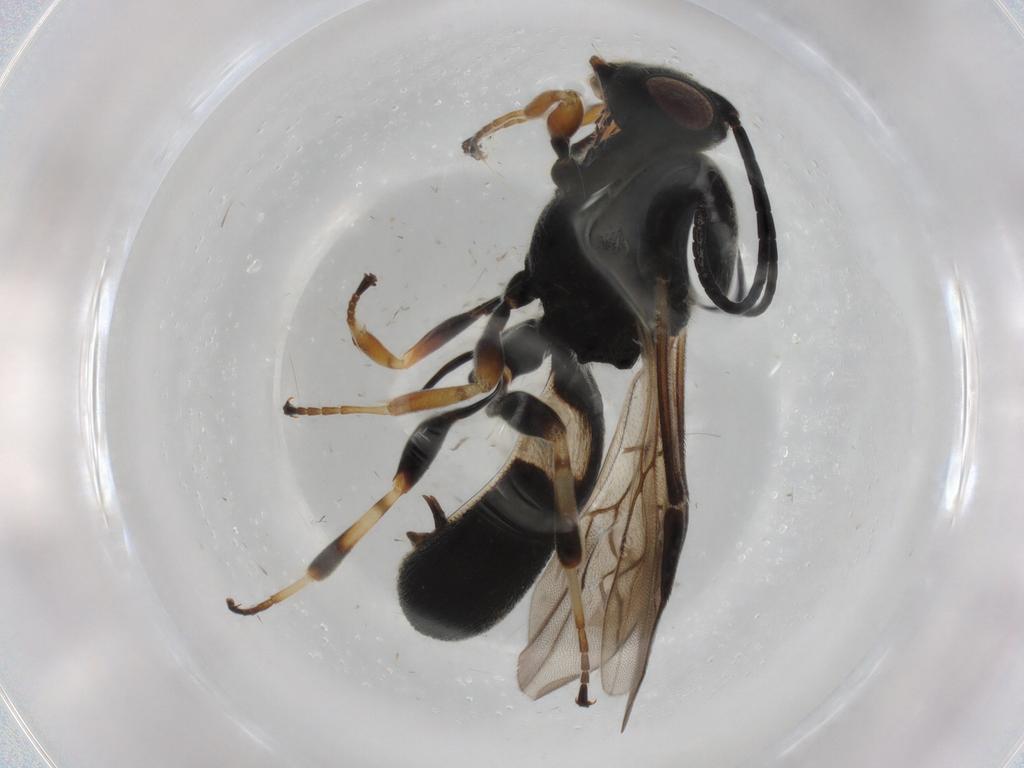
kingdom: Animalia
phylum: Arthropoda
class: Insecta
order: Hymenoptera
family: Braconidae
